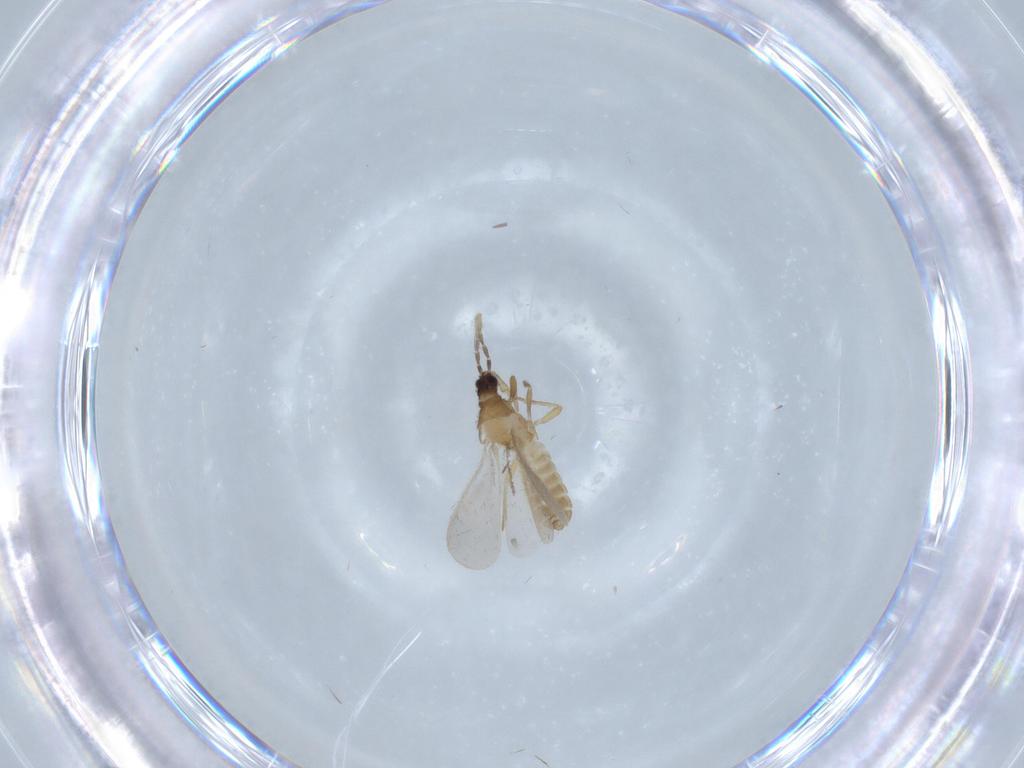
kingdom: Animalia
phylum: Arthropoda
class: Insecta
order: Hemiptera
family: Enicocephalidae
